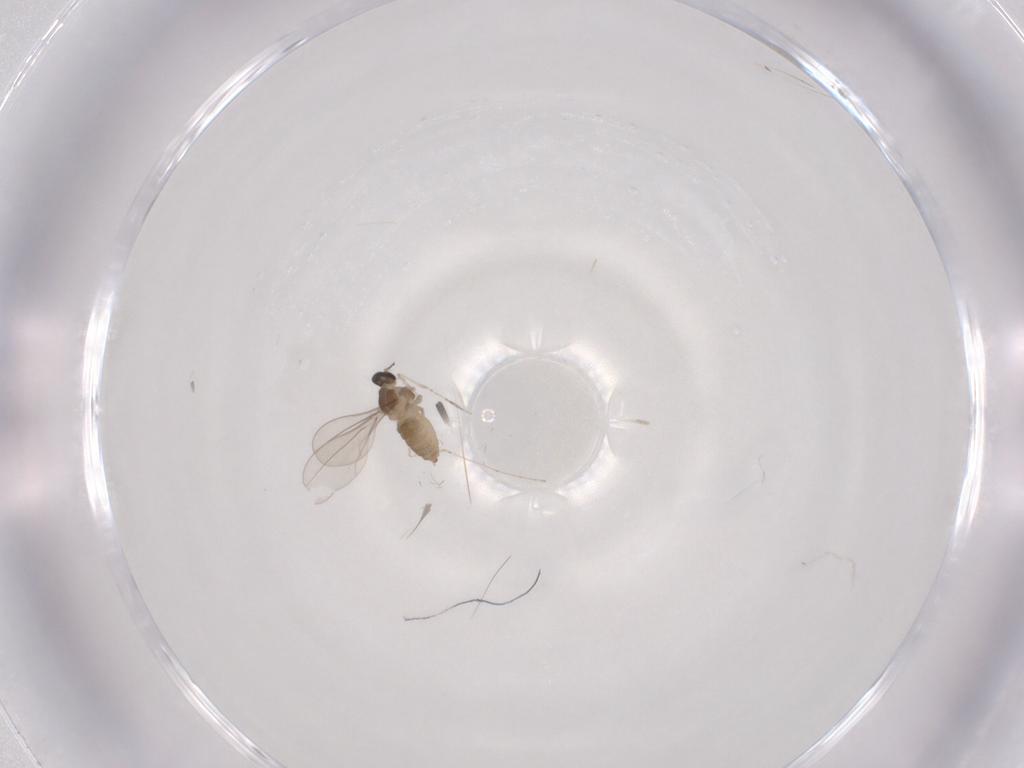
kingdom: Animalia
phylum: Arthropoda
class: Insecta
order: Diptera
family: Cecidomyiidae
